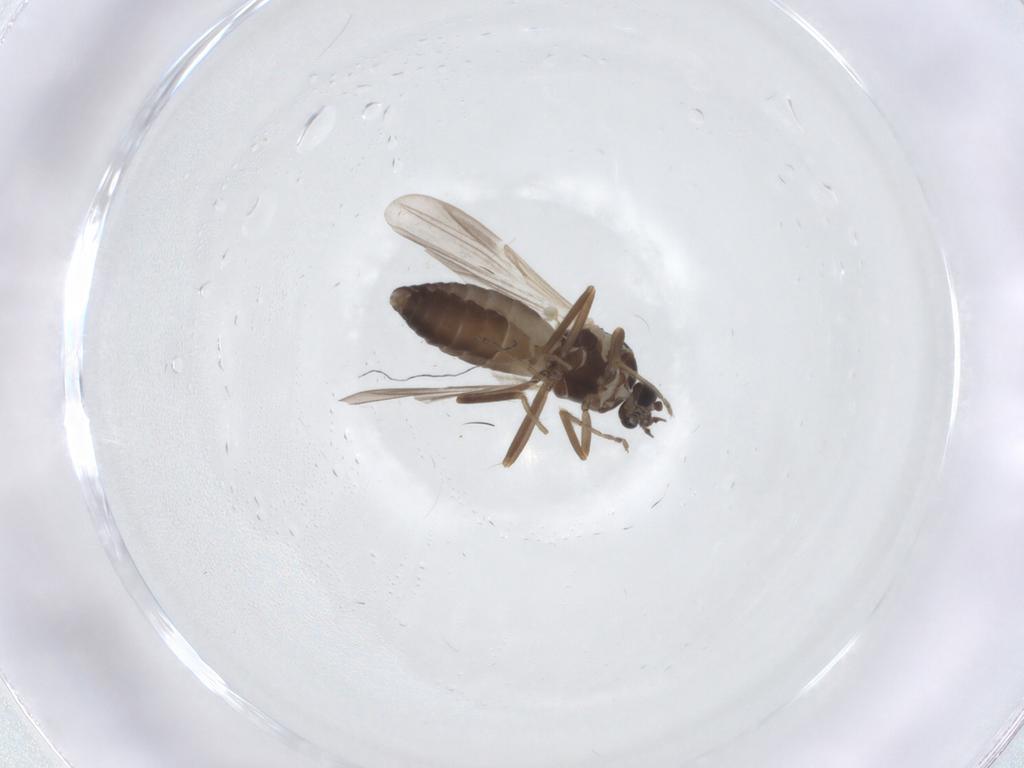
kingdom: Animalia
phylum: Arthropoda
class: Insecta
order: Diptera
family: Ceratopogonidae
